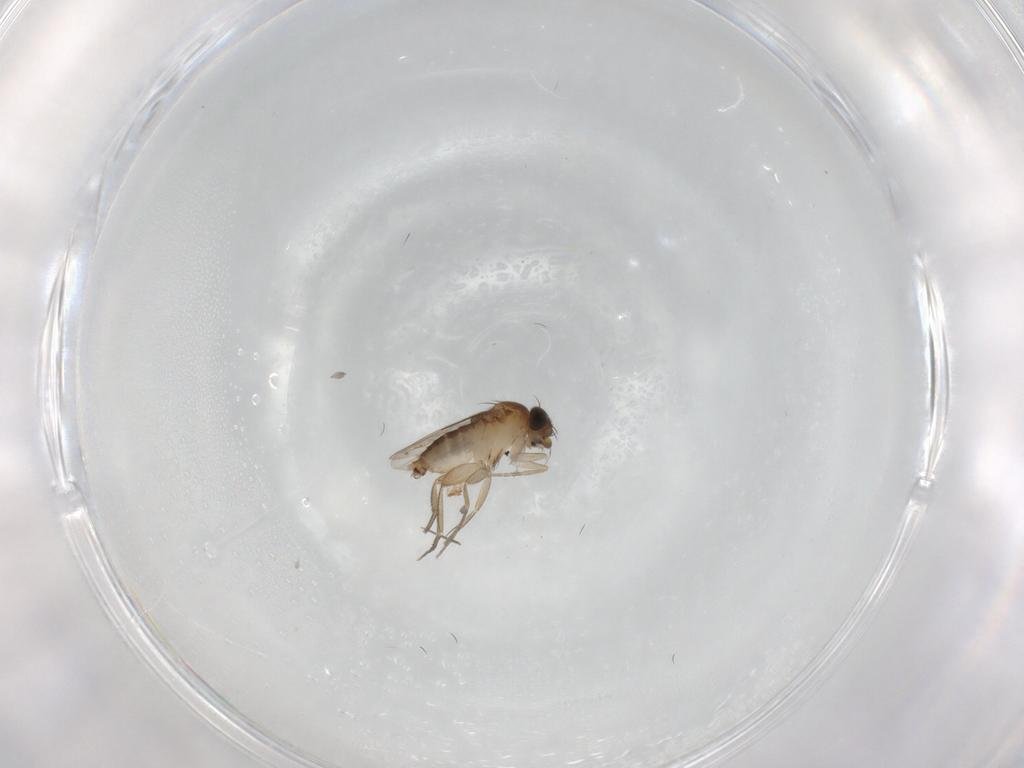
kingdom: Animalia
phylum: Arthropoda
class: Insecta
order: Diptera
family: Phoridae
